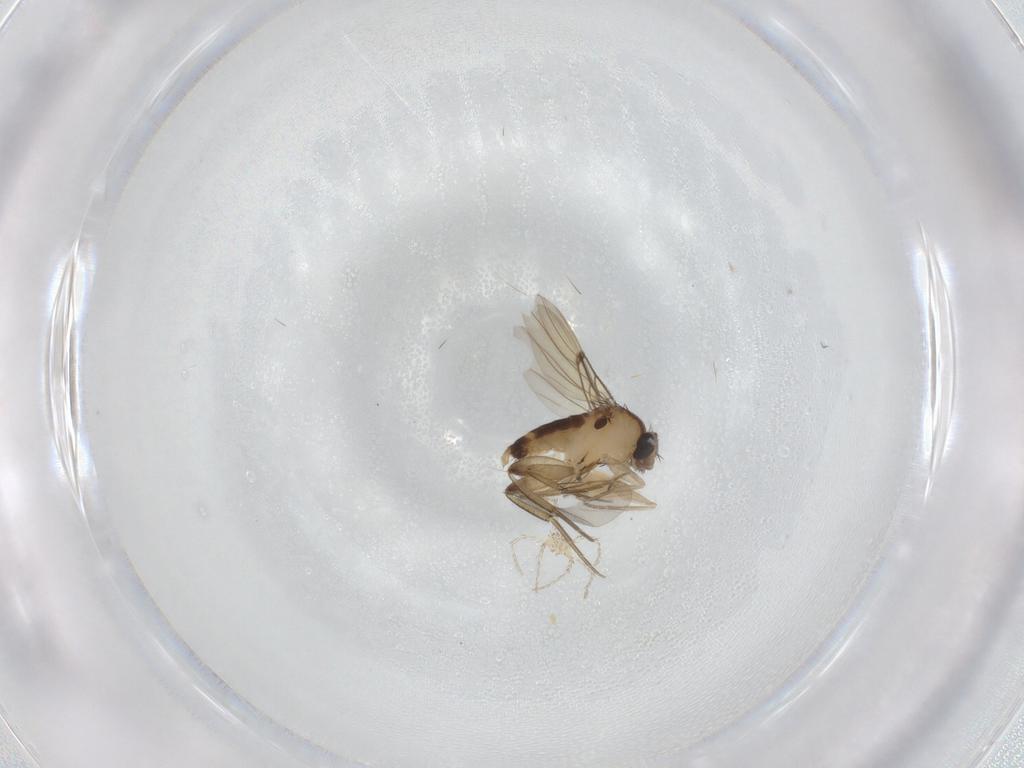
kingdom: Animalia
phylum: Arthropoda
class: Insecta
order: Diptera
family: Phoridae
